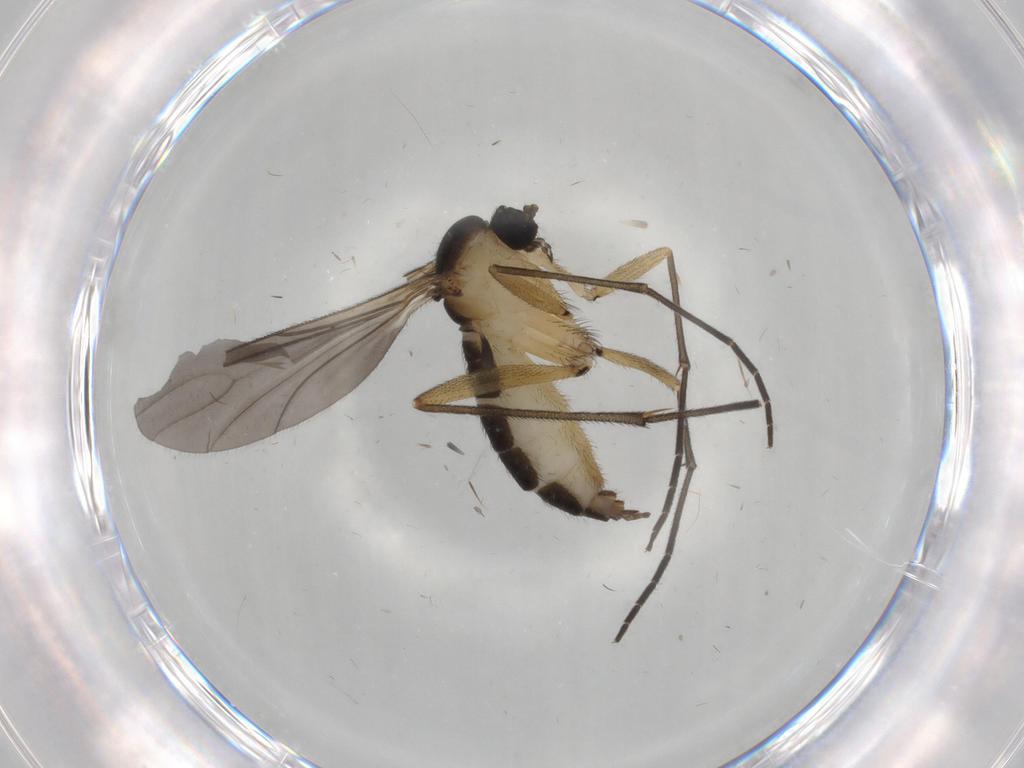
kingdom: Animalia
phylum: Arthropoda
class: Insecta
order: Diptera
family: Sciaridae
